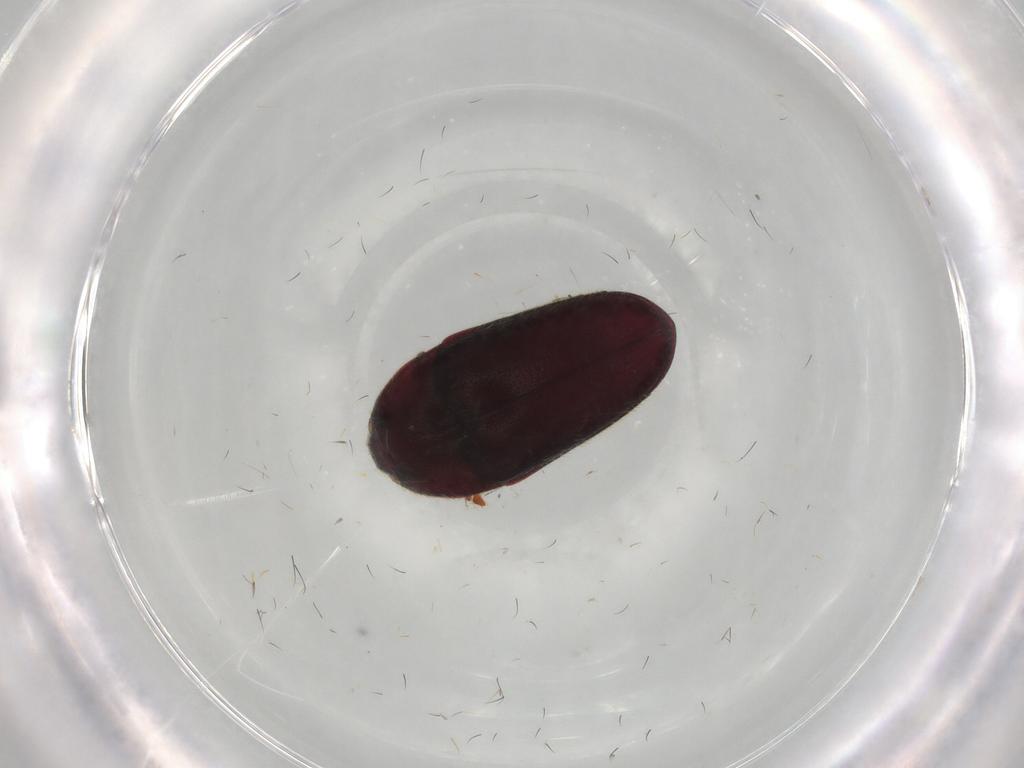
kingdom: Animalia
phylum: Arthropoda
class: Insecta
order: Coleoptera
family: Throscidae
